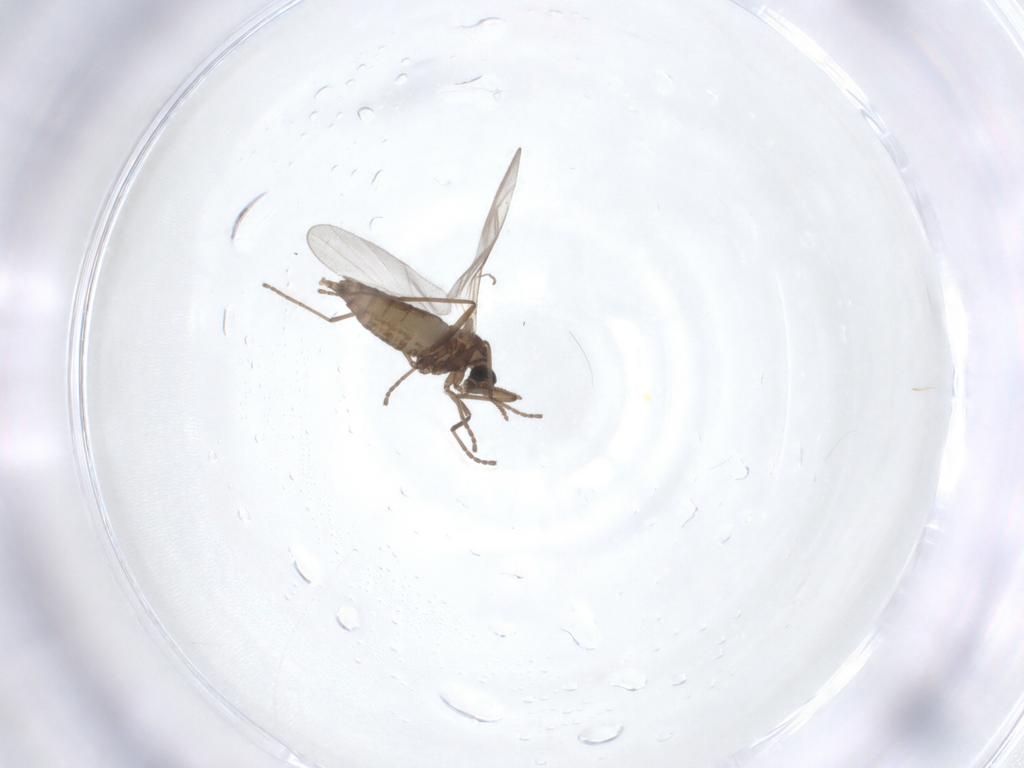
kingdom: Animalia
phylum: Arthropoda
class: Insecta
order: Diptera
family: Cecidomyiidae
